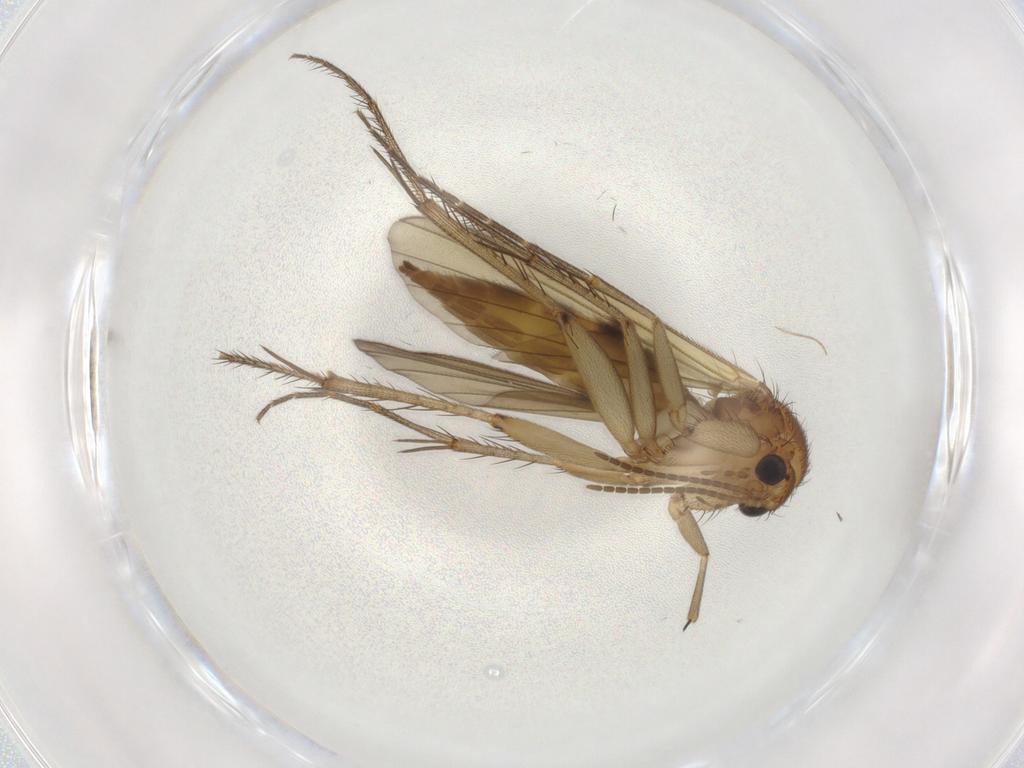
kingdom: Animalia
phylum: Arthropoda
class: Insecta
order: Diptera
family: Mycetophilidae
